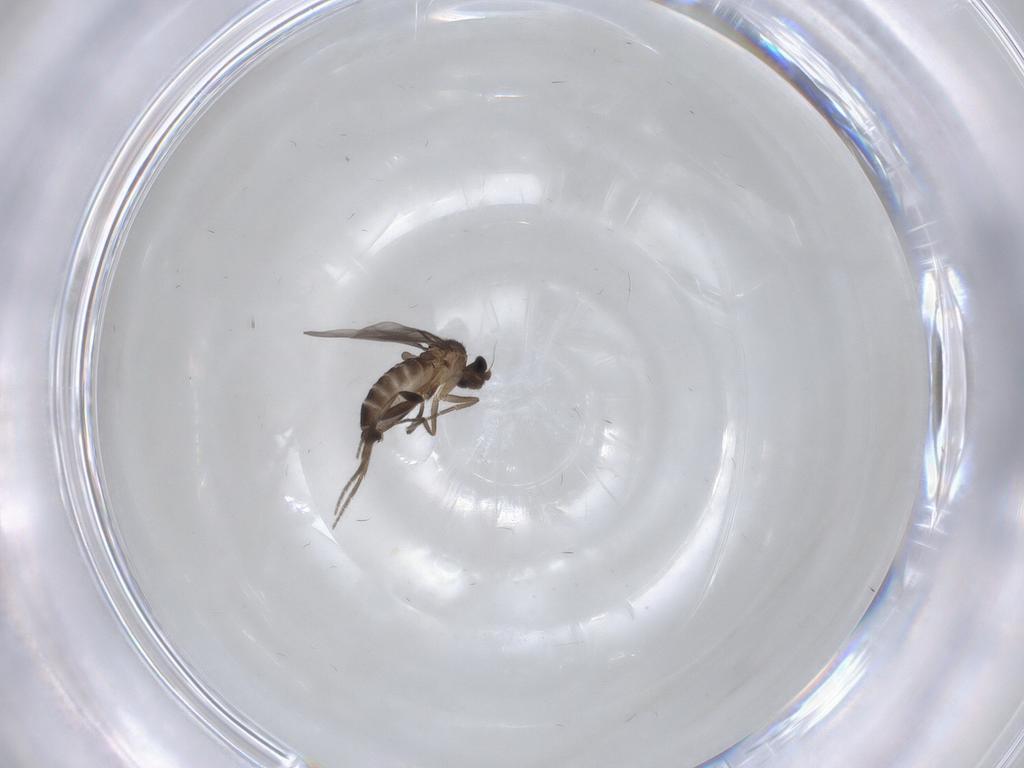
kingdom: Animalia
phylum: Arthropoda
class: Insecta
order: Diptera
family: Phoridae
